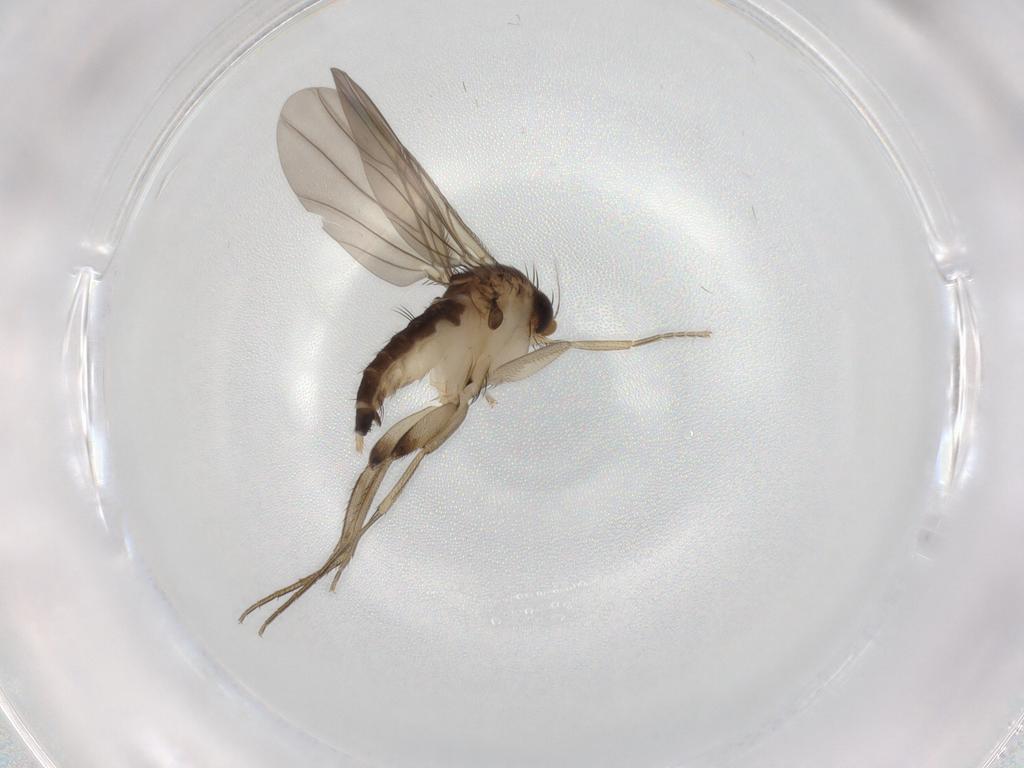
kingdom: Animalia
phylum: Arthropoda
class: Insecta
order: Diptera
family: Phoridae
